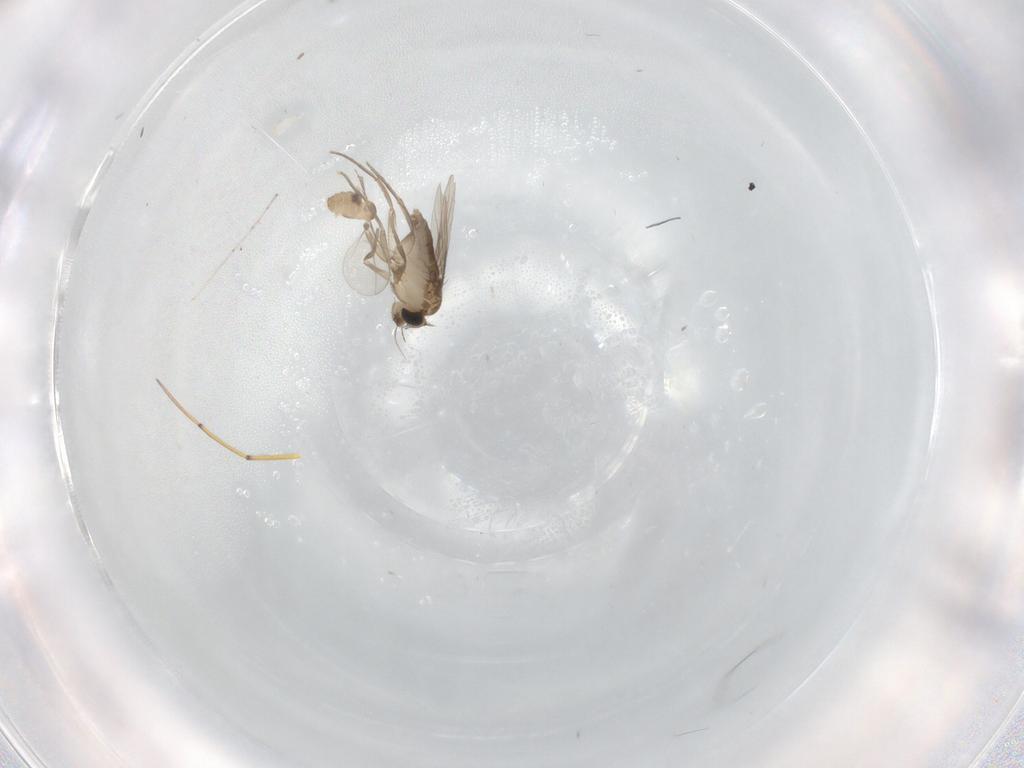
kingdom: Animalia
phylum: Arthropoda
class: Insecta
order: Diptera
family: Cecidomyiidae
